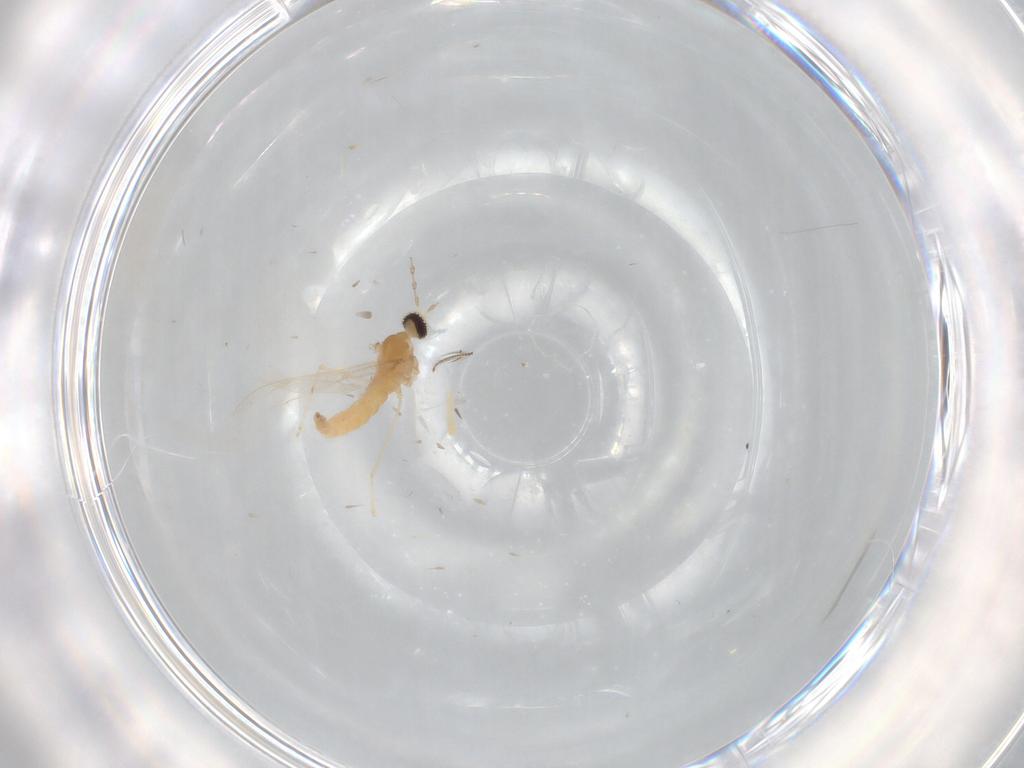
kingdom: Animalia
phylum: Arthropoda
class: Insecta
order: Diptera
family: Cecidomyiidae
